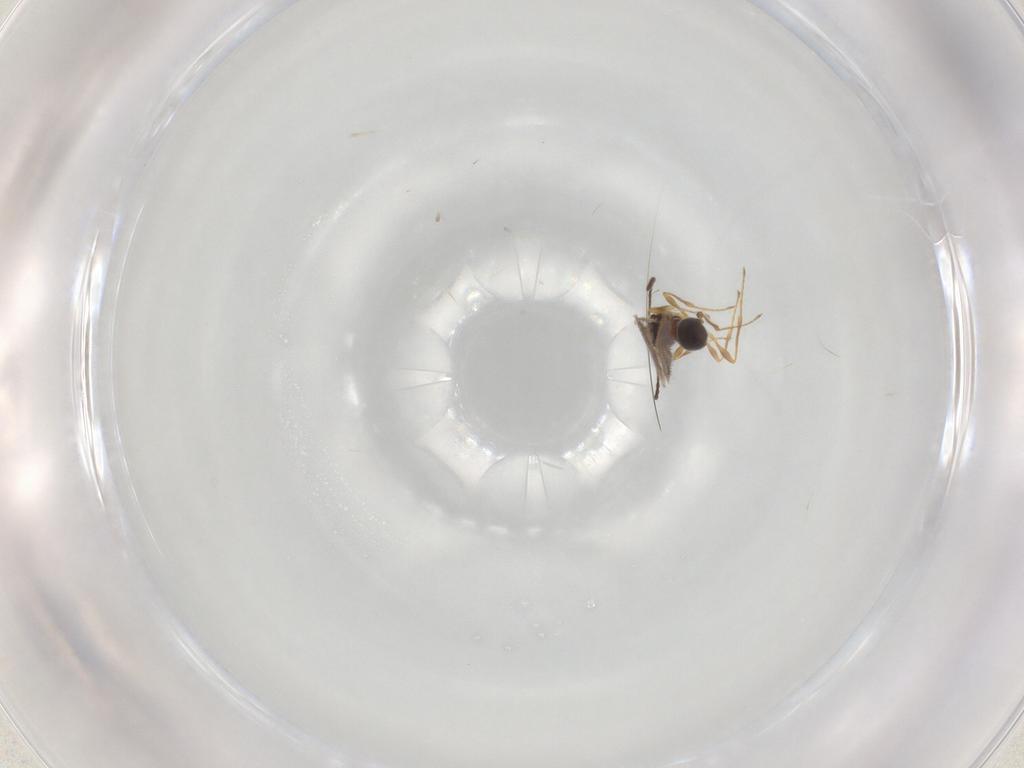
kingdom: Animalia
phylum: Arthropoda
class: Insecta
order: Hymenoptera
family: Diapriidae
